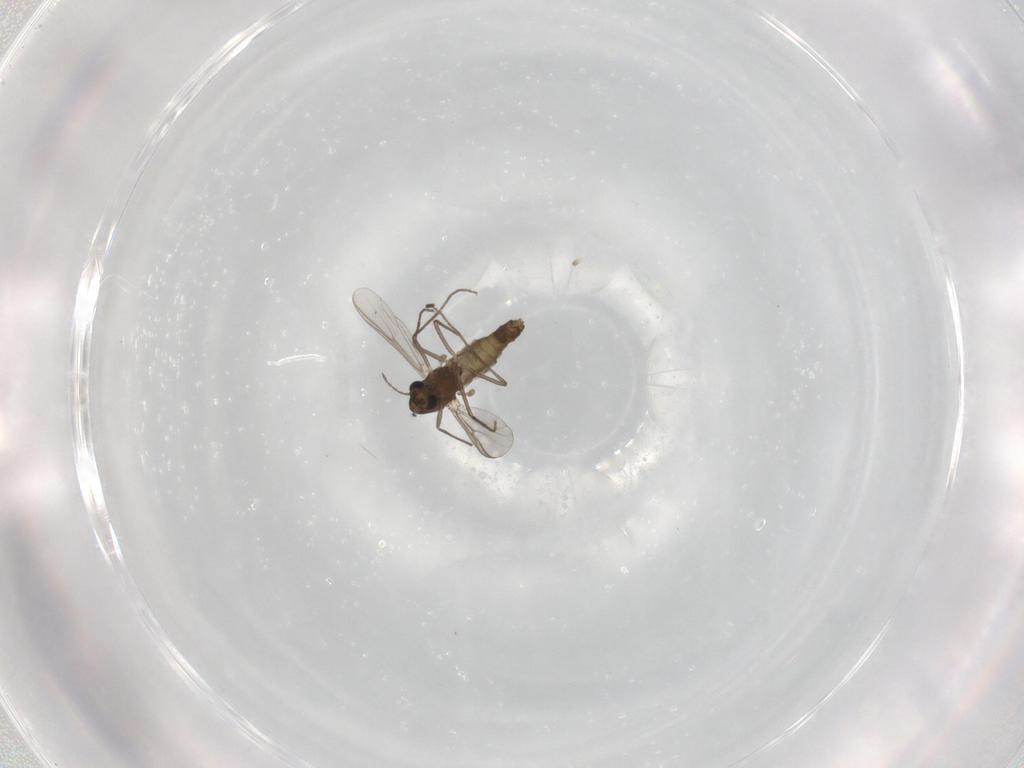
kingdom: Animalia
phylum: Arthropoda
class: Insecta
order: Diptera
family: Chironomidae
